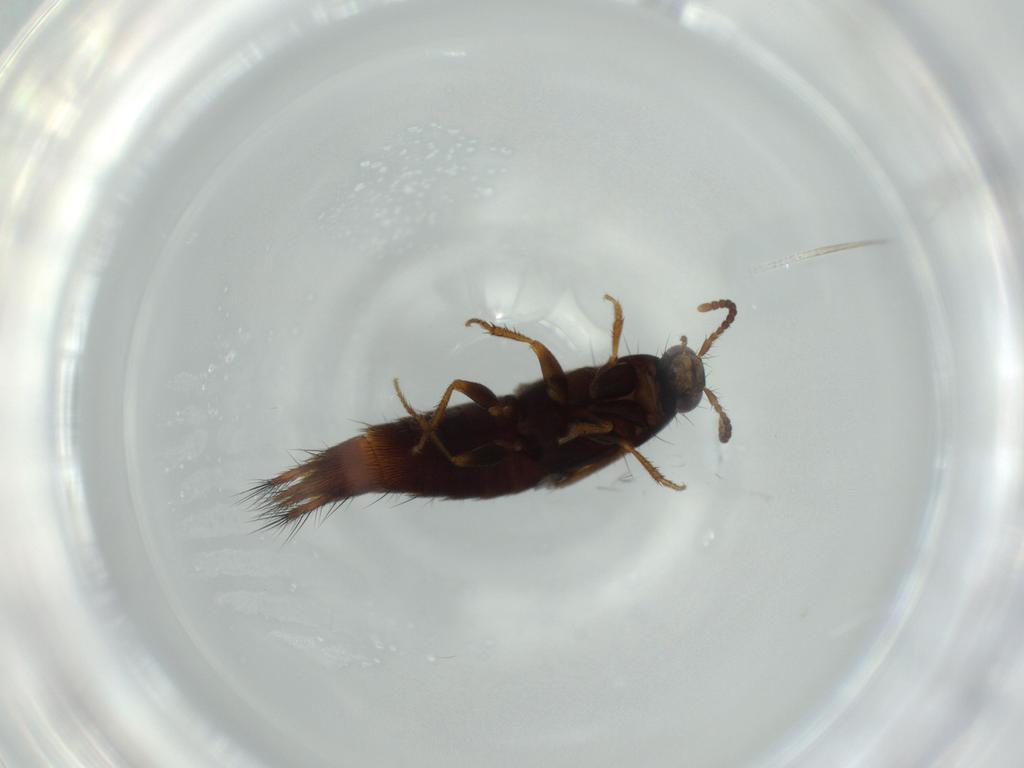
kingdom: Animalia
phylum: Arthropoda
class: Insecta
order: Coleoptera
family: Staphylinidae
